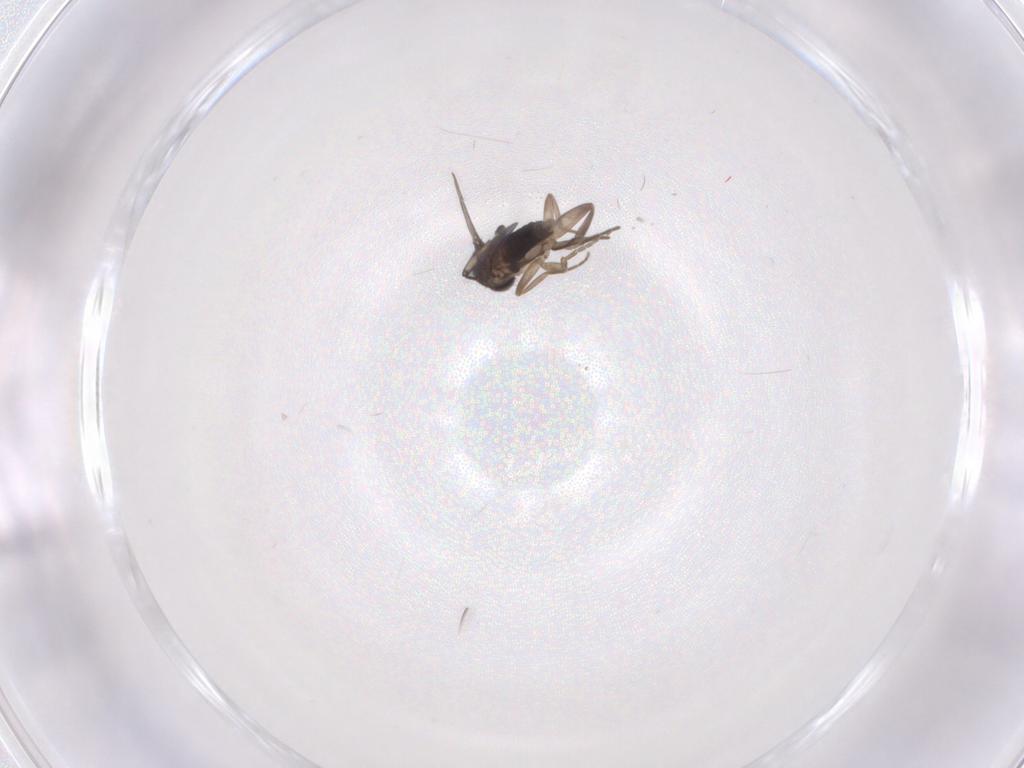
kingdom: Animalia
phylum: Arthropoda
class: Insecta
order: Diptera
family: Phoridae
